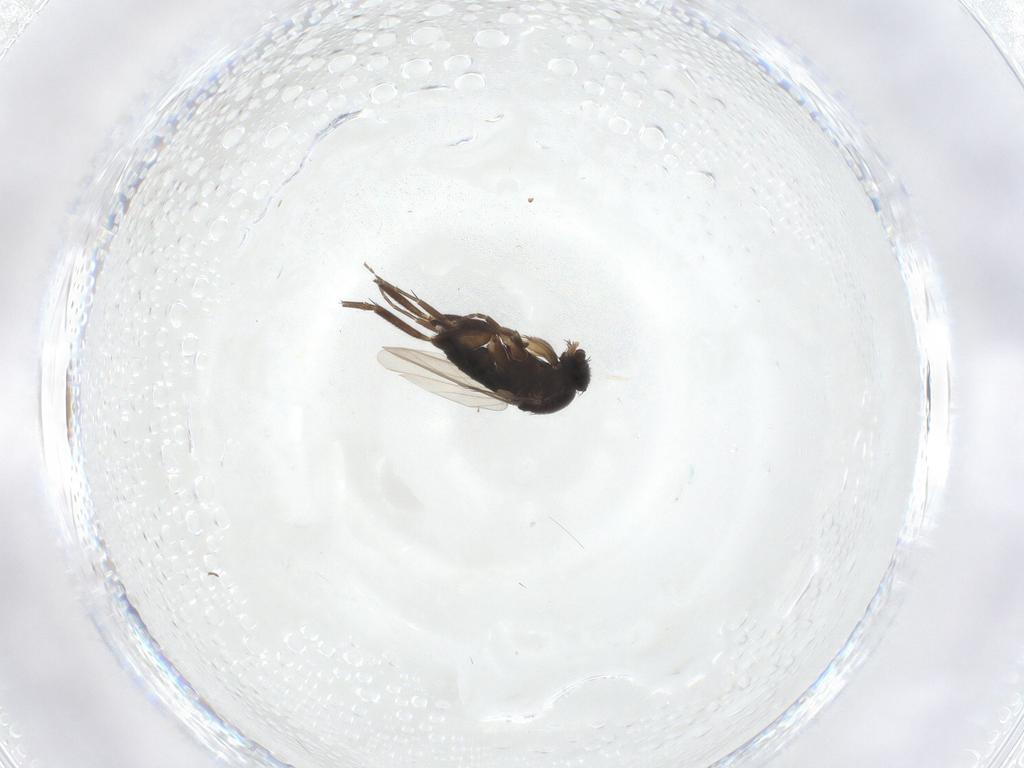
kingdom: Animalia
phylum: Arthropoda
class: Insecta
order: Diptera
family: Phoridae
